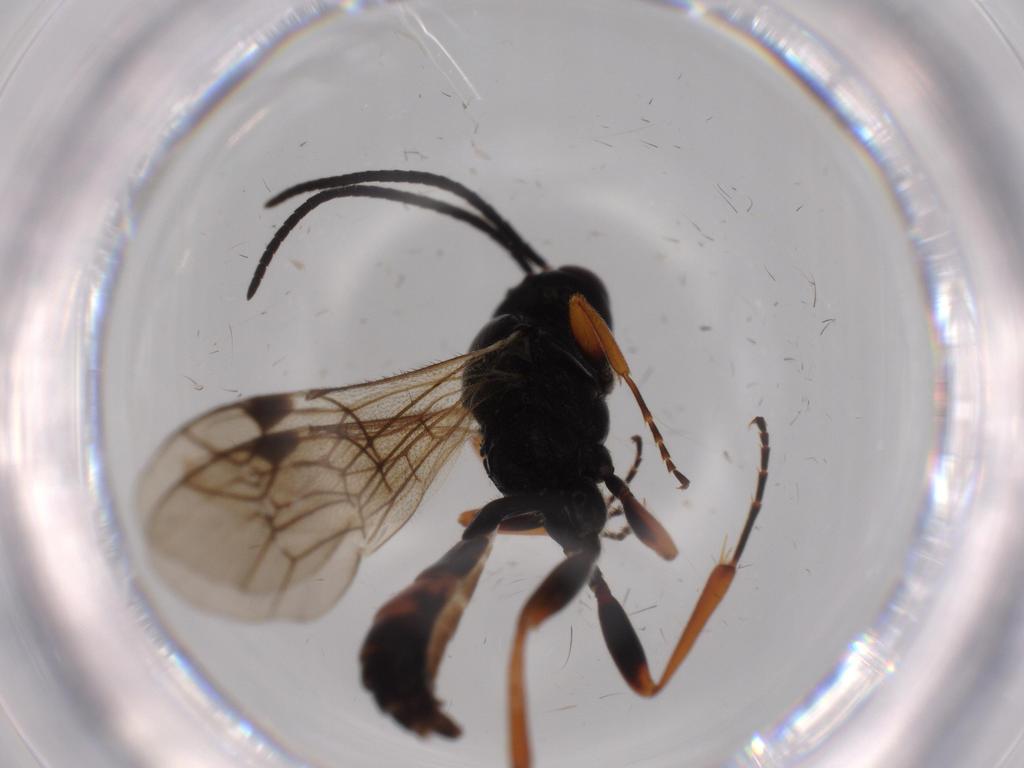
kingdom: Animalia
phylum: Arthropoda
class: Insecta
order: Hymenoptera
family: Ichneumonidae
